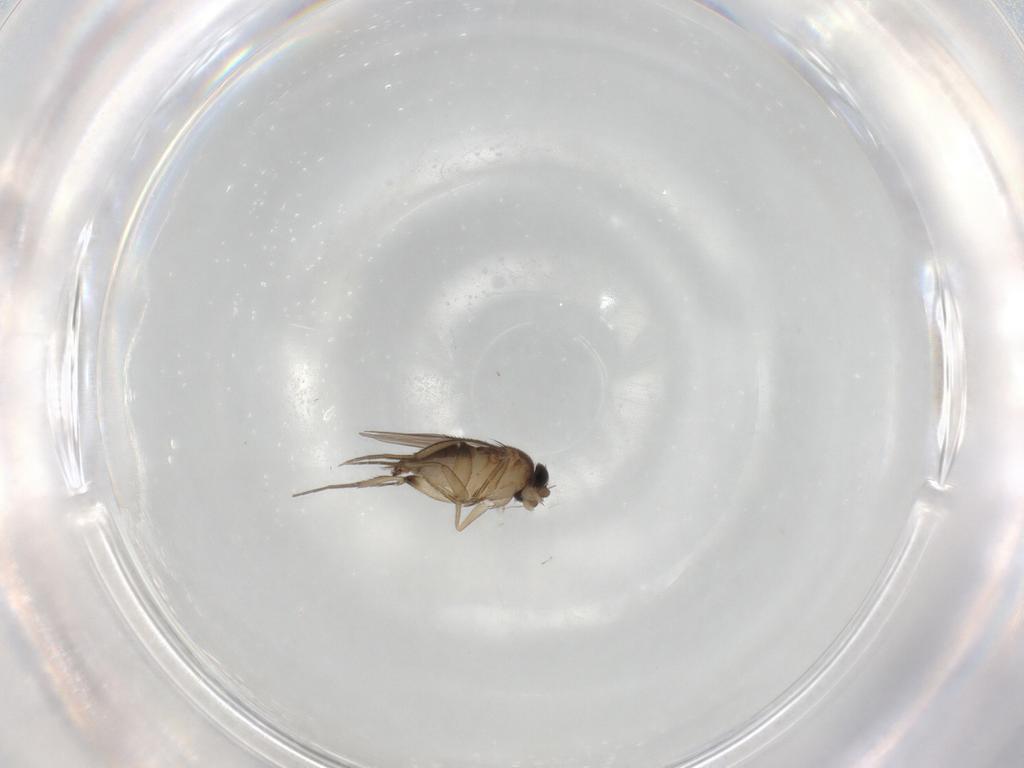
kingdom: Animalia
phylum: Arthropoda
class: Insecta
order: Diptera
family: Phoridae
